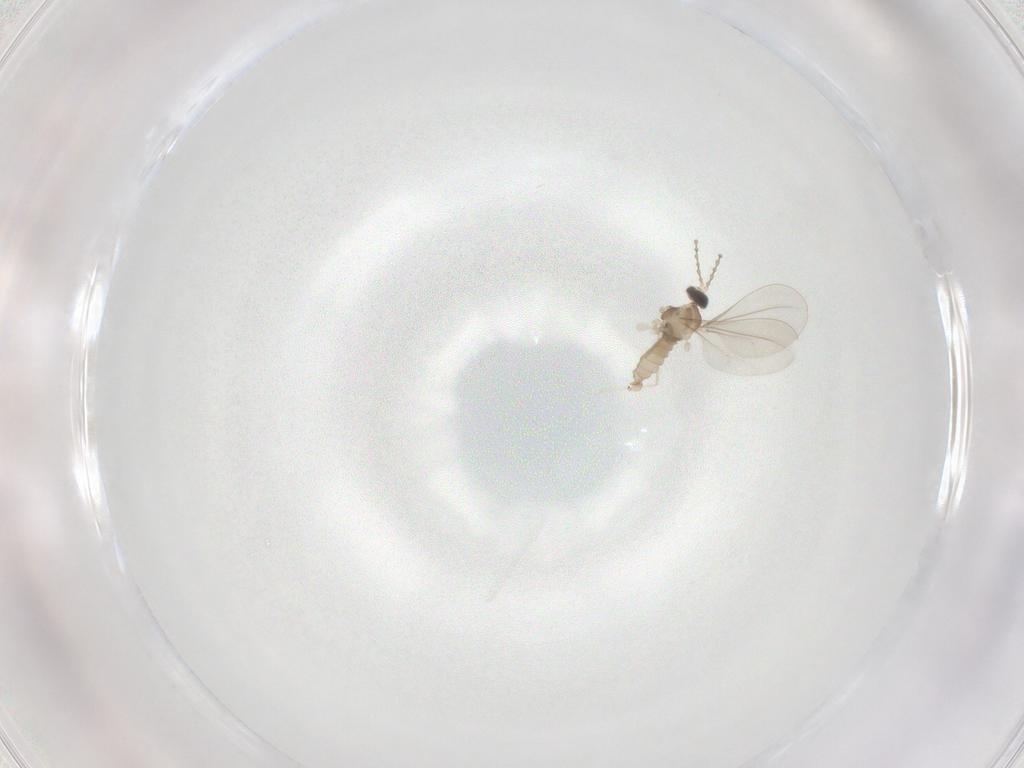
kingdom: Animalia
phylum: Arthropoda
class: Insecta
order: Diptera
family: Cecidomyiidae
